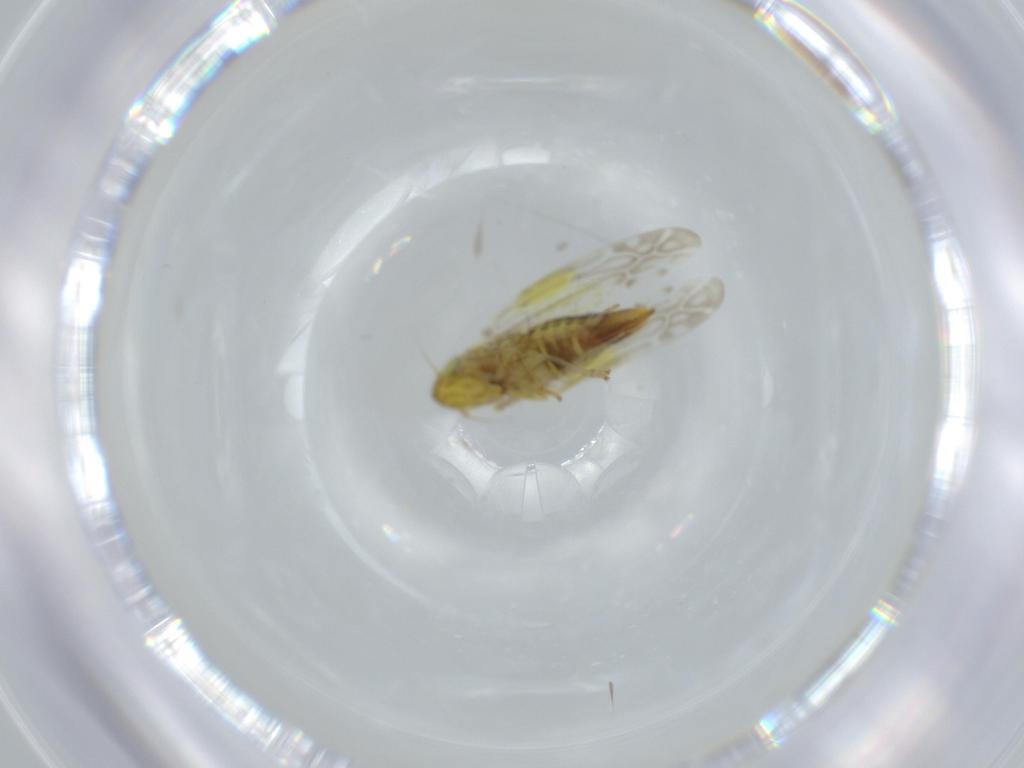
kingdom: Animalia
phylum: Arthropoda
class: Insecta
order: Hemiptera
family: Cicadellidae
